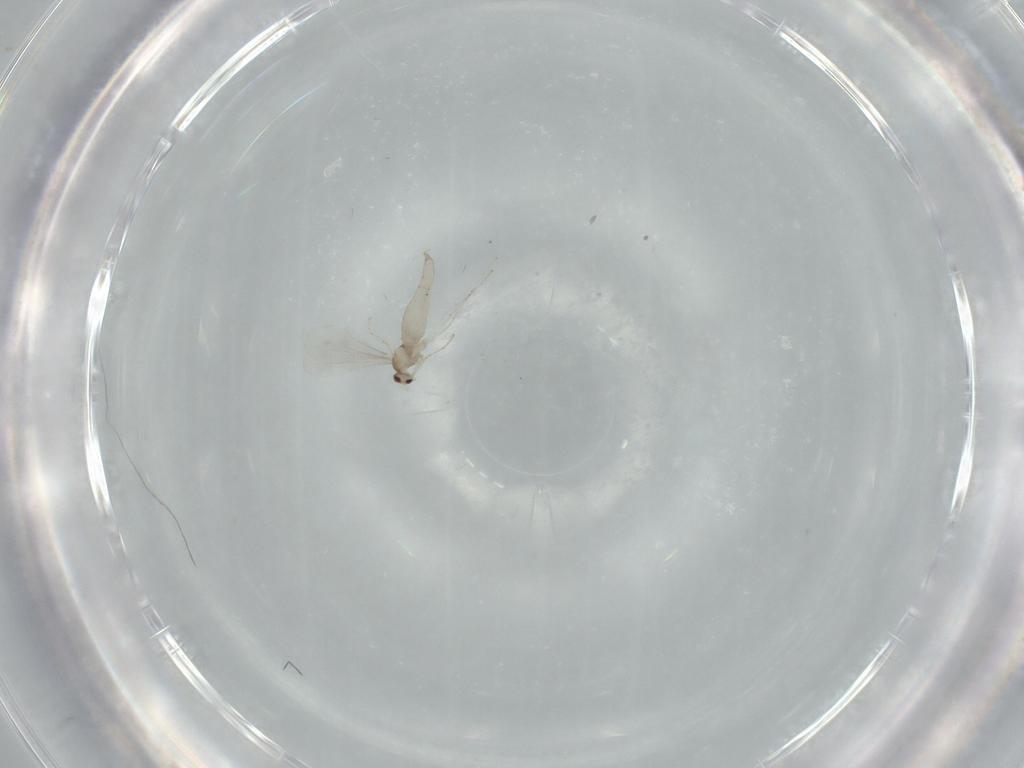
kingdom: Animalia
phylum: Arthropoda
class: Insecta
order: Diptera
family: Cecidomyiidae
